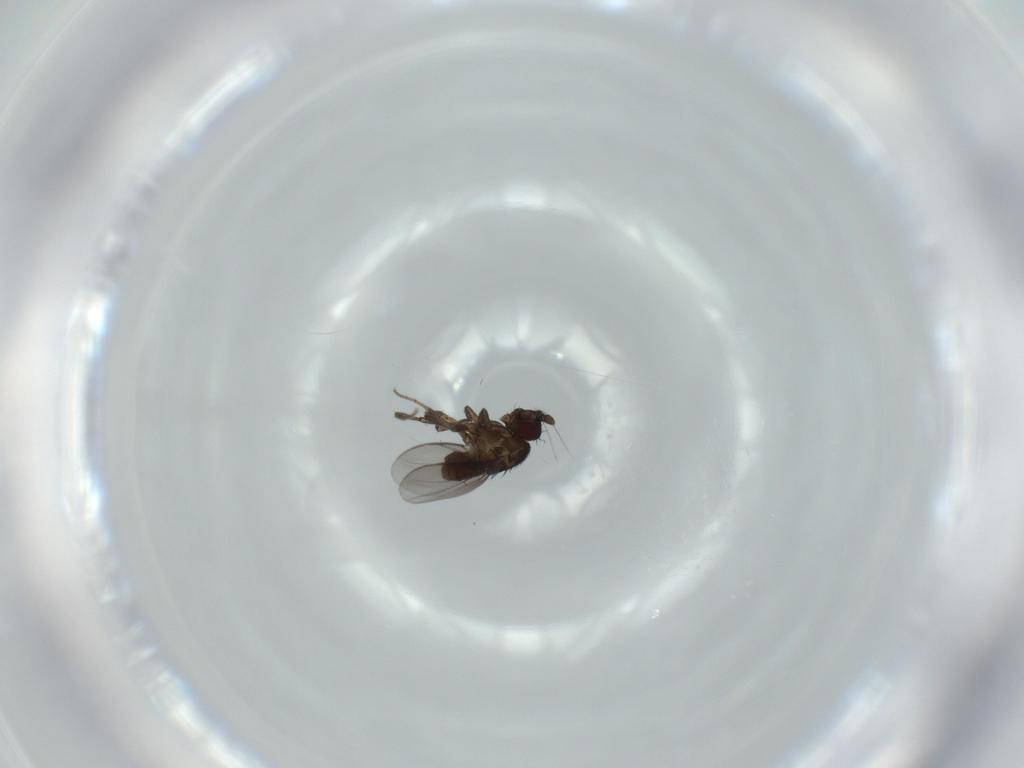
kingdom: Animalia
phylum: Arthropoda
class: Insecta
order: Diptera
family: Sphaeroceridae
